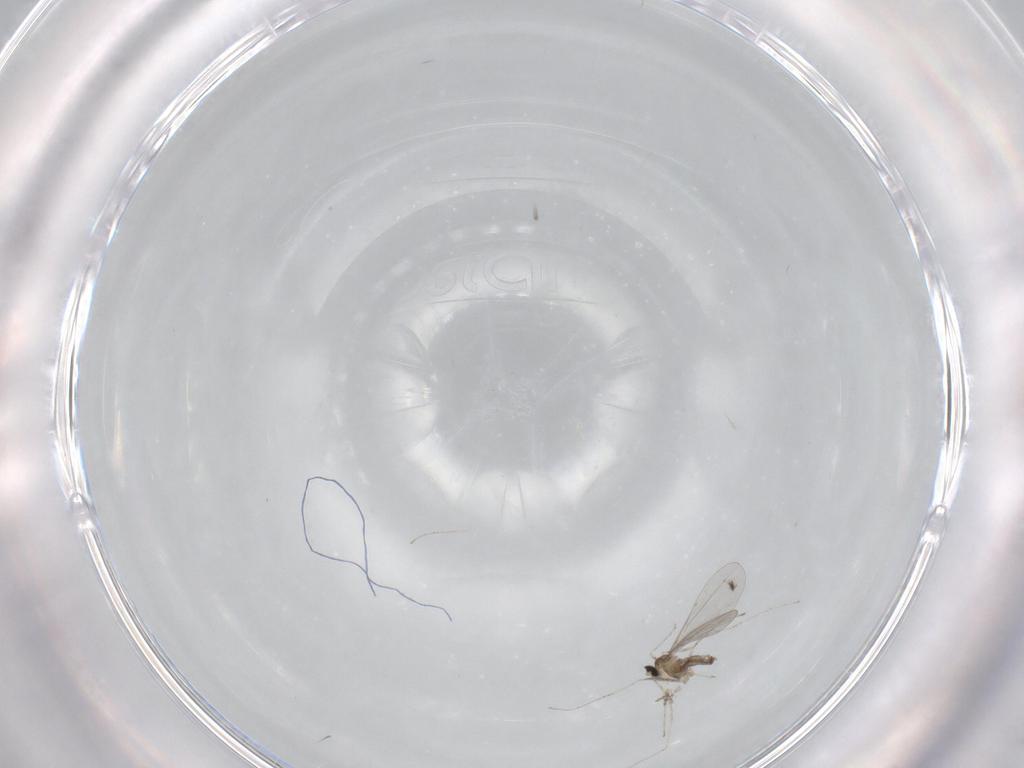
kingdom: Animalia
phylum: Arthropoda
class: Insecta
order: Diptera
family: Cecidomyiidae
